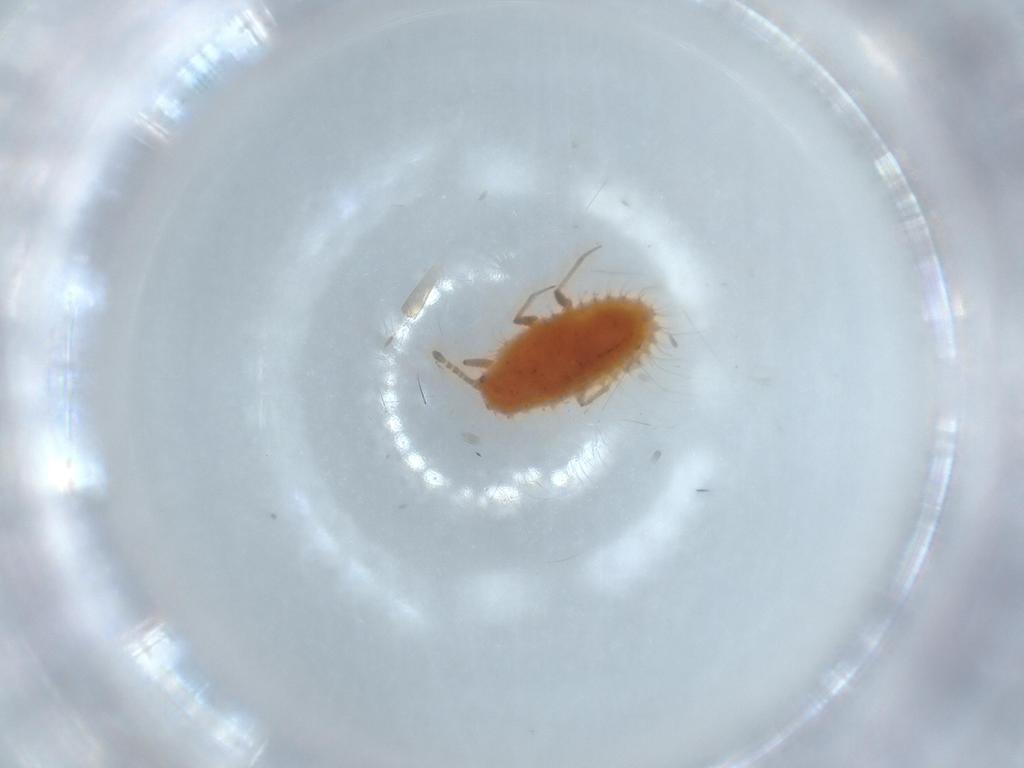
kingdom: Animalia
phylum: Arthropoda
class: Insecta
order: Hemiptera
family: Coccoidea_incertae_sedis
